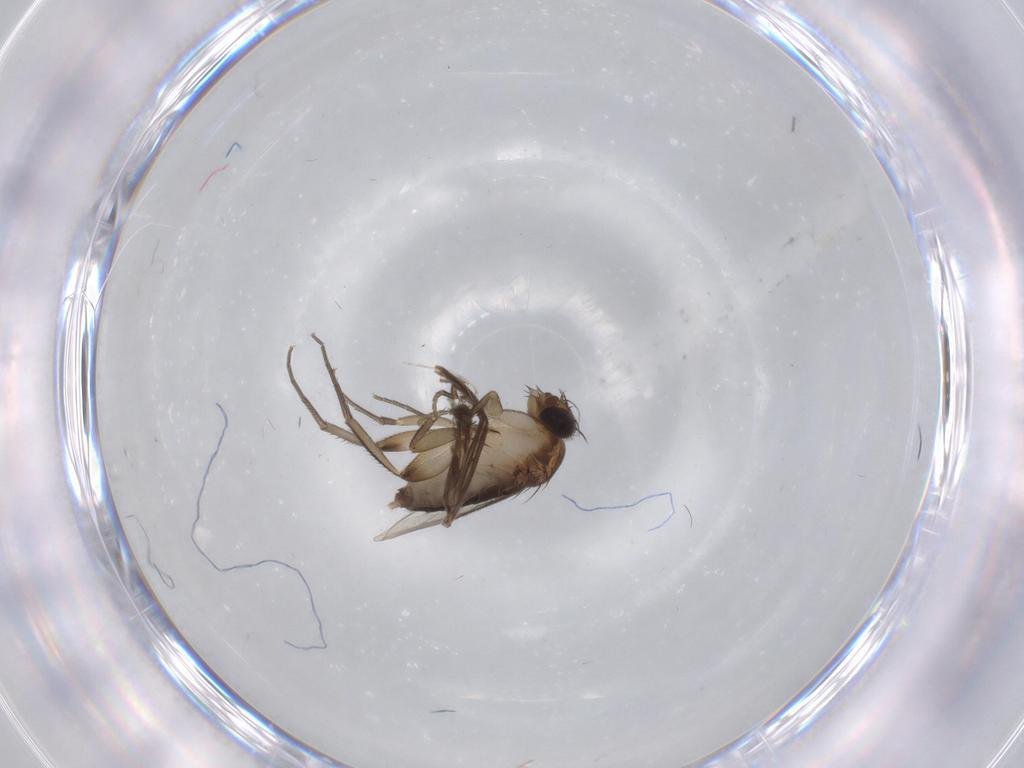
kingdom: Animalia
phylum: Arthropoda
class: Insecta
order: Diptera
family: Phoridae
